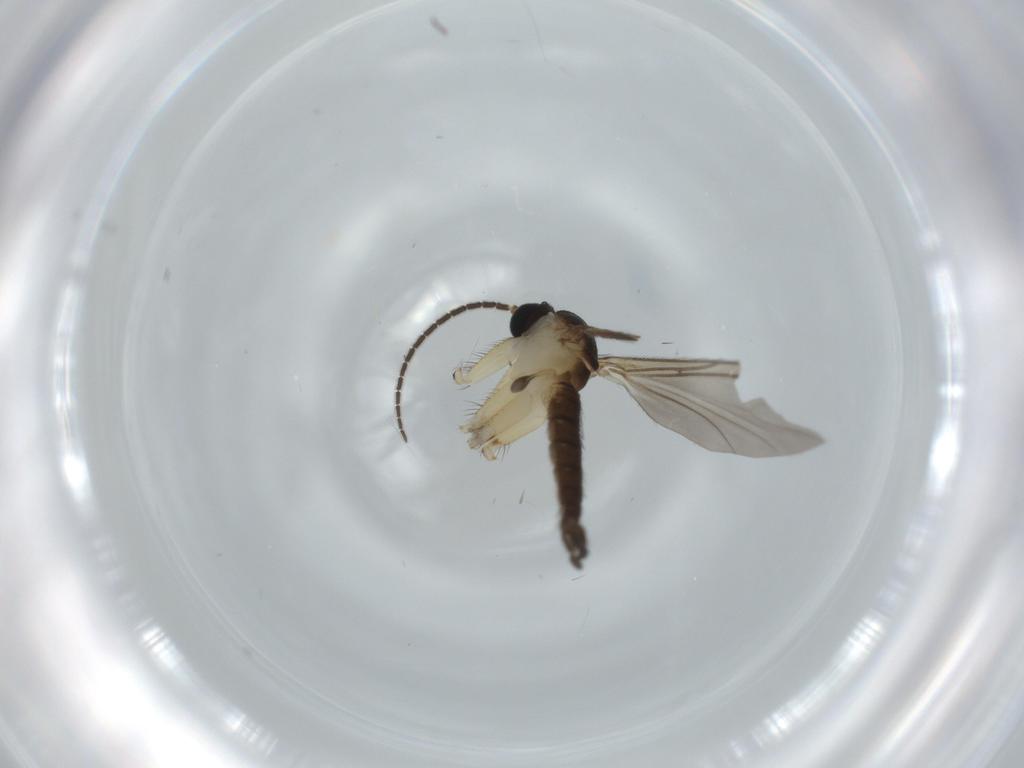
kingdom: Animalia
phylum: Arthropoda
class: Insecta
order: Diptera
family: Sciaridae
